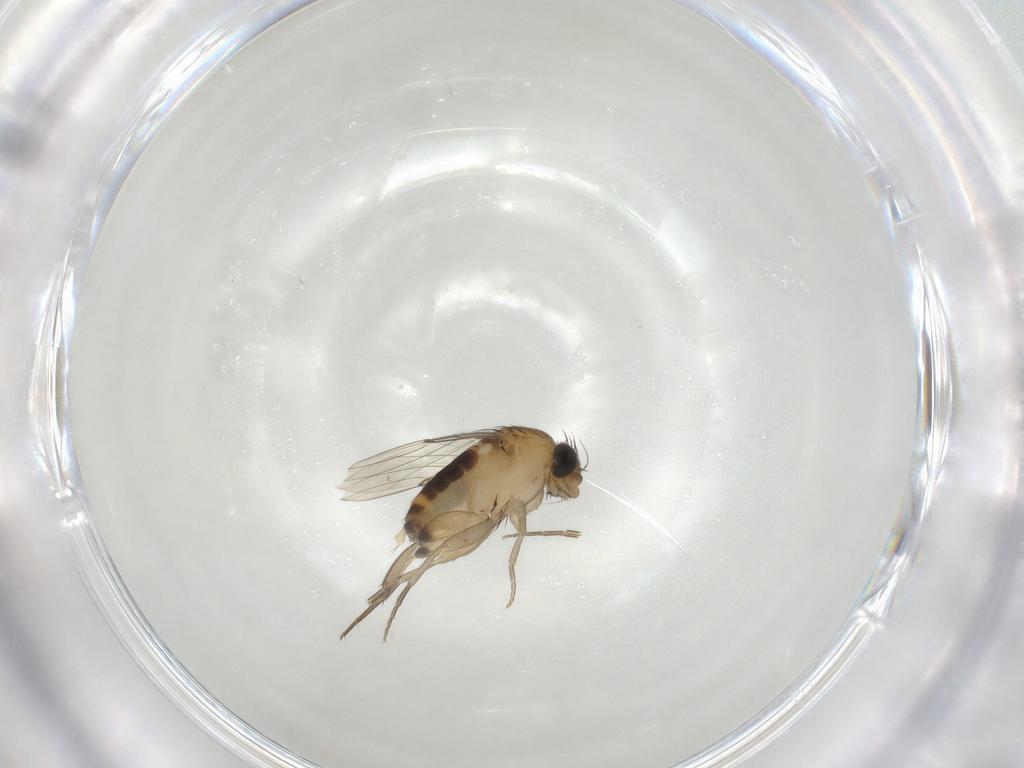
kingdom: Animalia
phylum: Arthropoda
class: Insecta
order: Diptera
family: Phoridae
